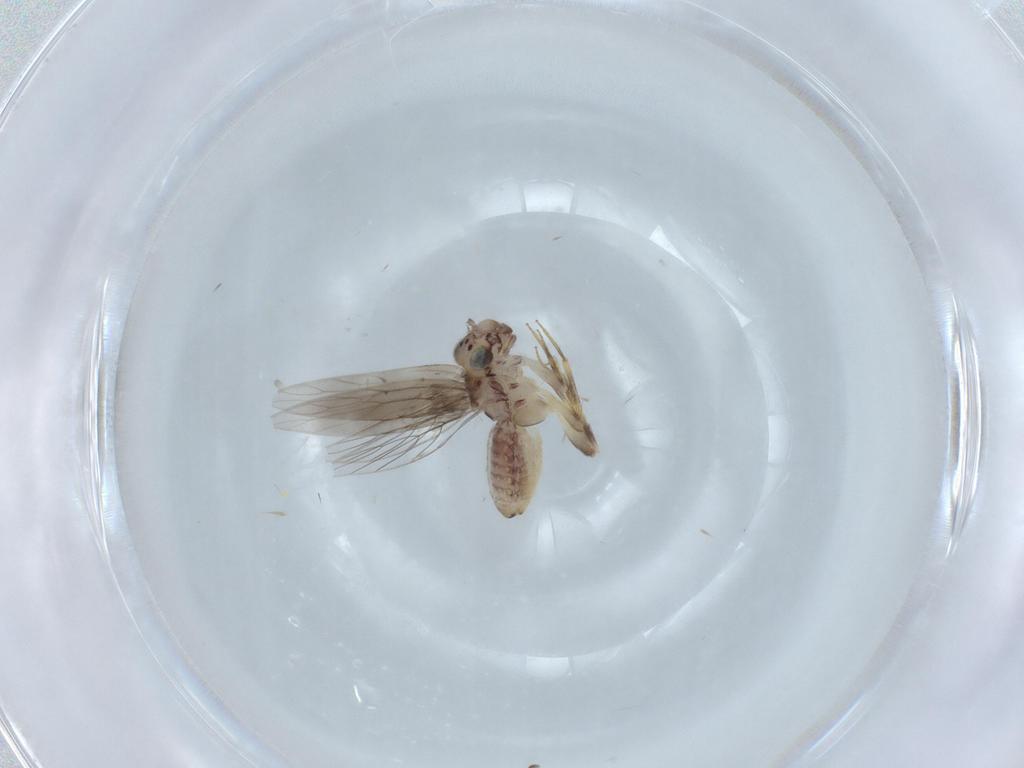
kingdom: Animalia
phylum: Arthropoda
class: Insecta
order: Psocodea
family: Lepidopsocidae
